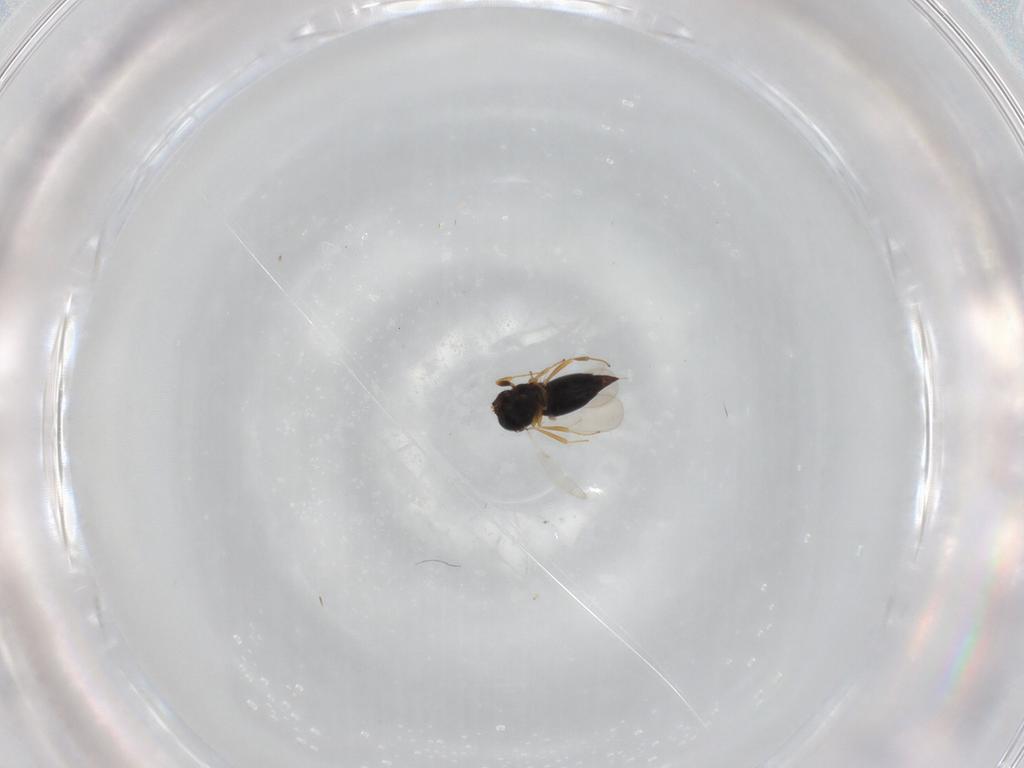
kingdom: Animalia
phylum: Arthropoda
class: Insecta
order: Hymenoptera
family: Scelionidae
